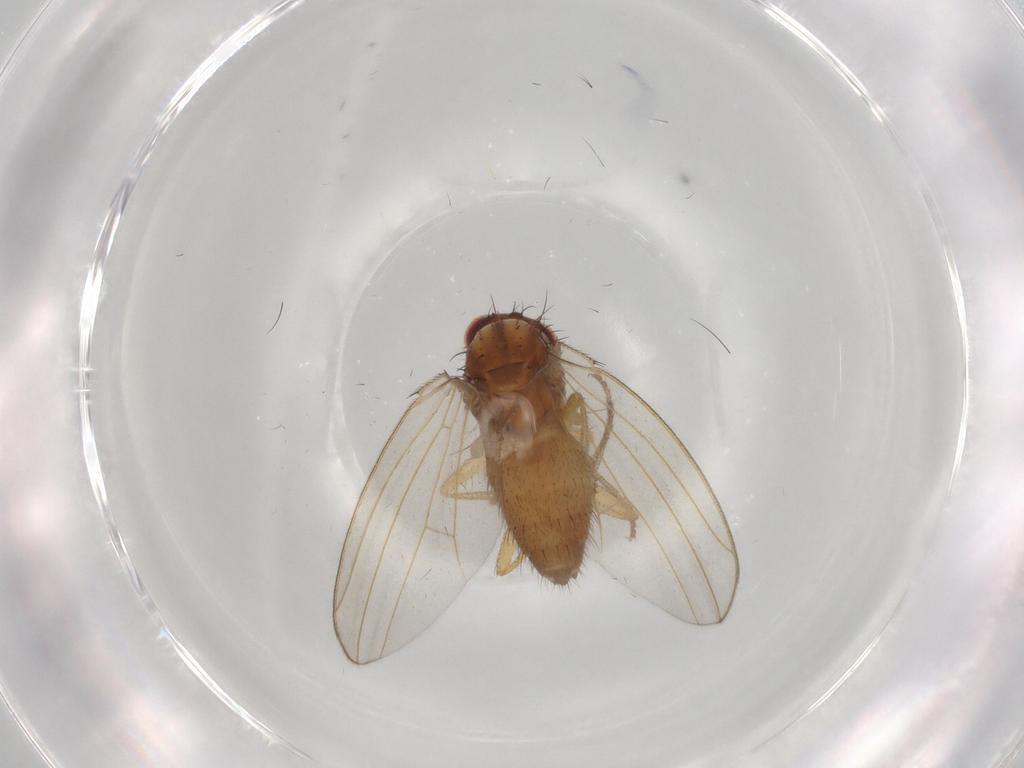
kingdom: Animalia
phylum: Arthropoda
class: Insecta
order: Diptera
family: Drosophilidae
